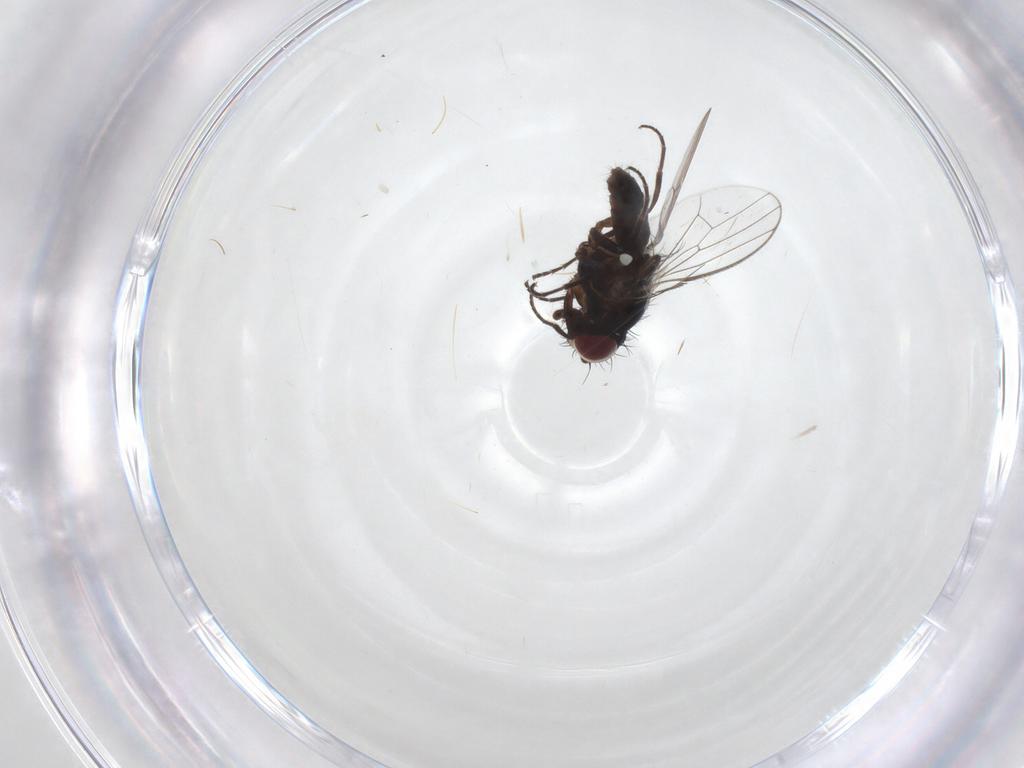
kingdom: Animalia
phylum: Arthropoda
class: Insecta
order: Diptera
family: Carnidae
